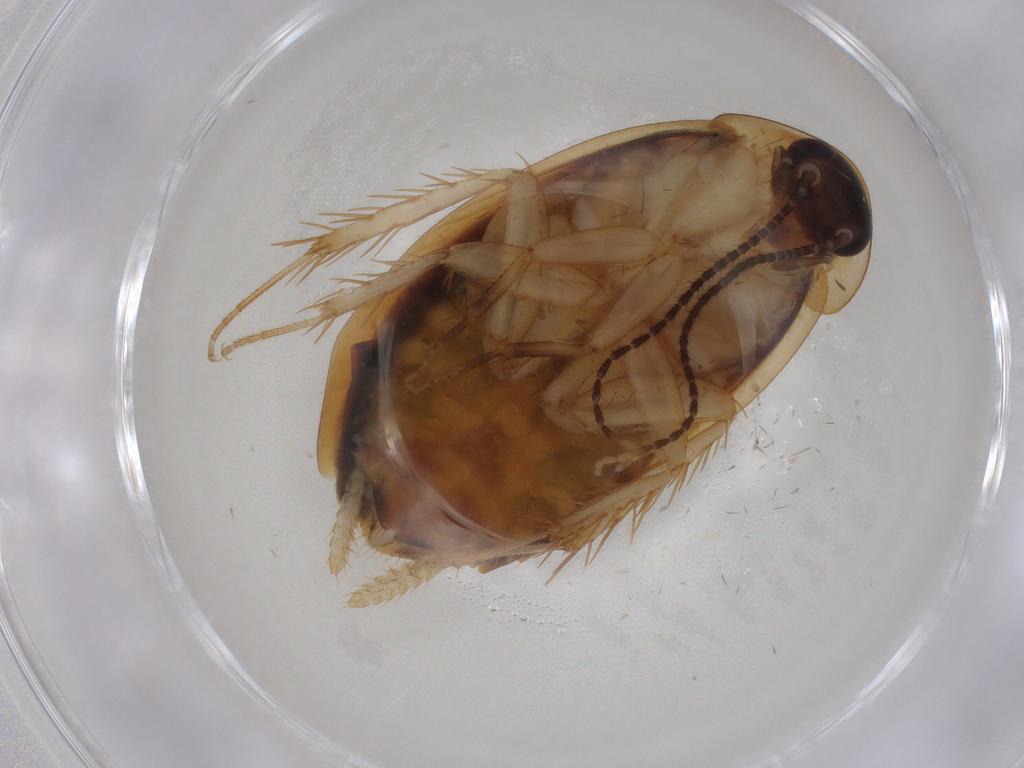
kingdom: Animalia
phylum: Arthropoda
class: Insecta
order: Blattodea
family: Ectobiidae
